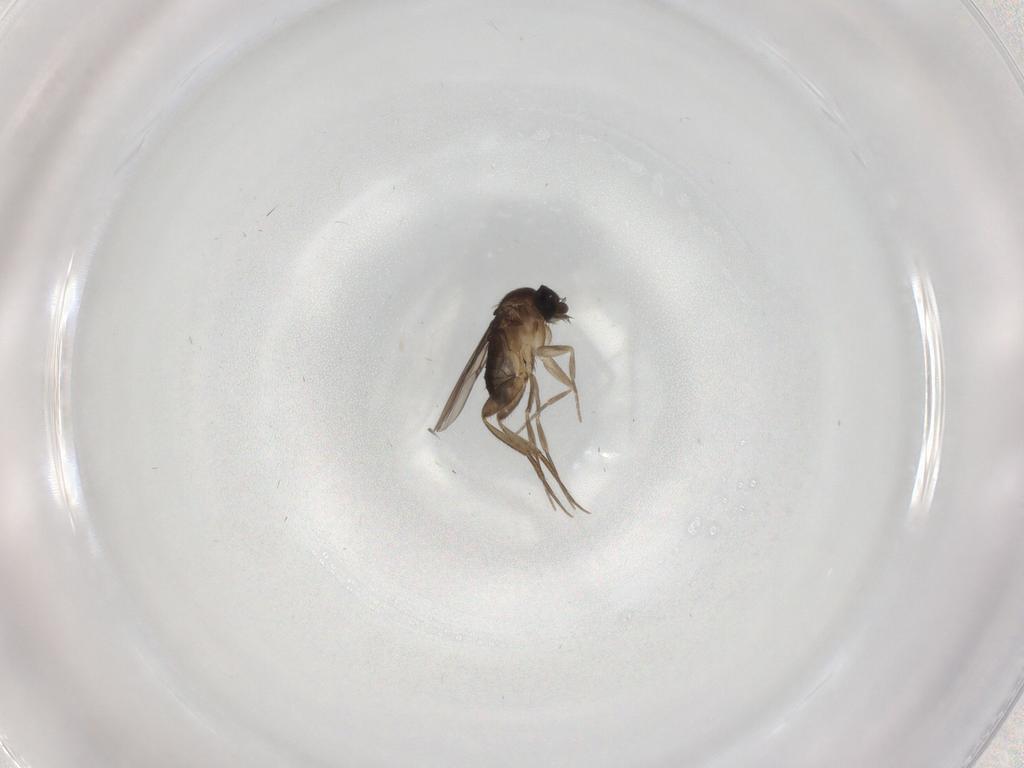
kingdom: Animalia
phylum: Arthropoda
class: Insecta
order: Diptera
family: Phoridae
